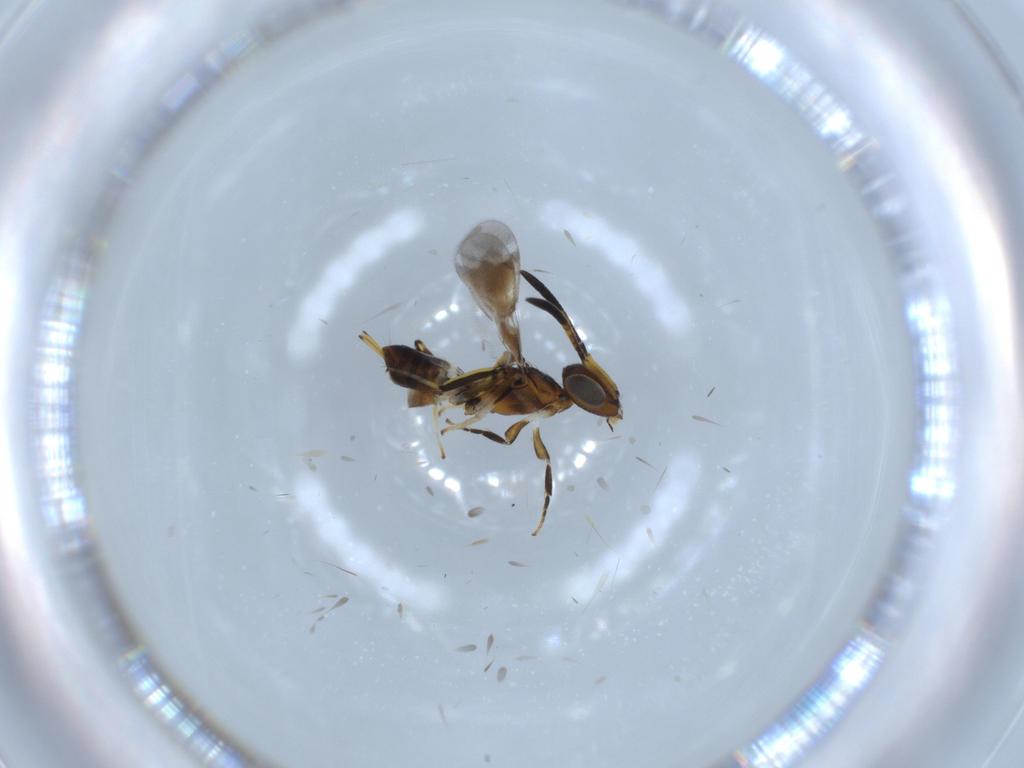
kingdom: Animalia
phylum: Arthropoda
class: Insecta
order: Hymenoptera
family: Eupelmidae
